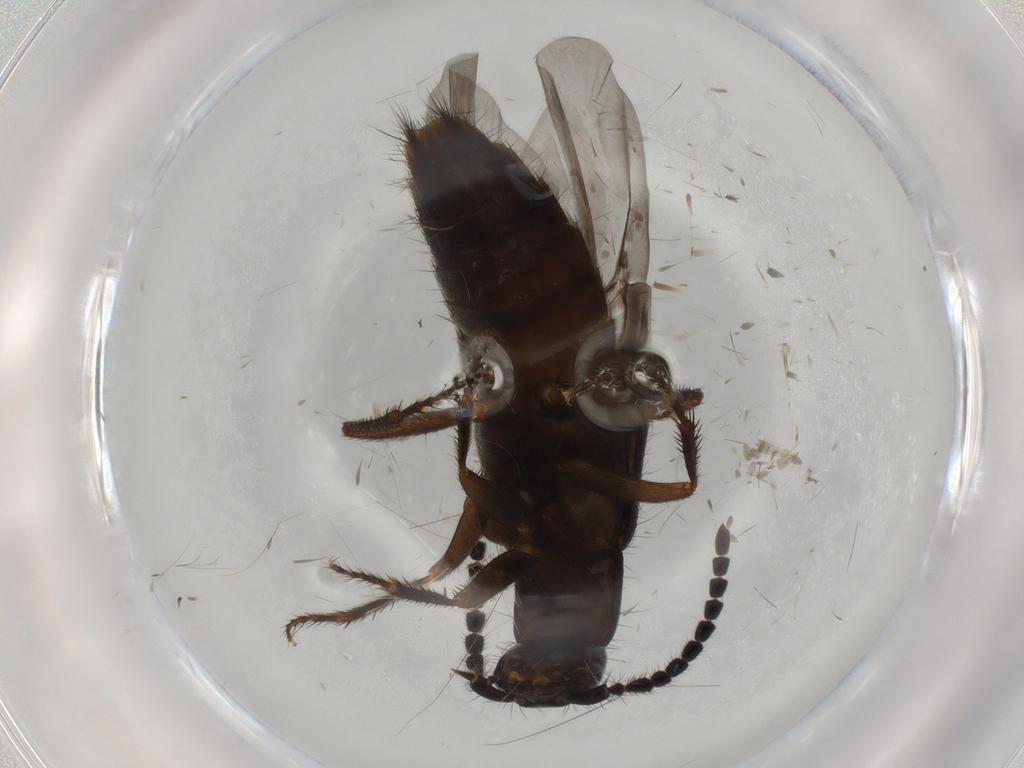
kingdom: Animalia
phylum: Arthropoda
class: Insecta
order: Coleoptera
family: Staphylinidae
